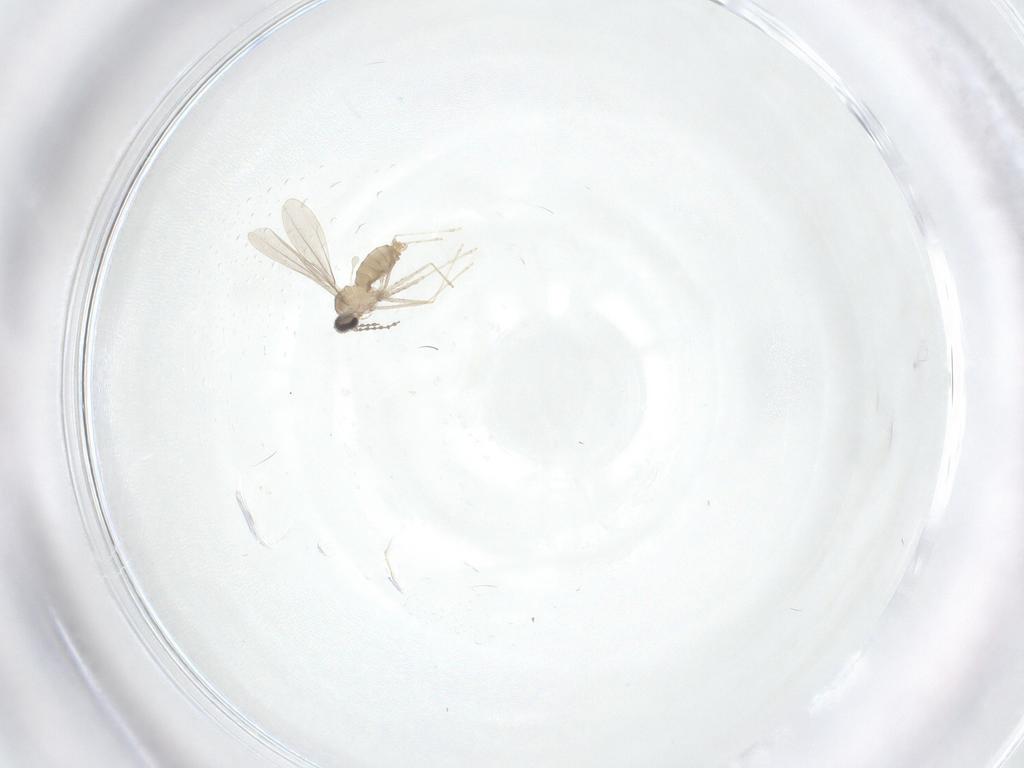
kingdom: Animalia
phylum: Arthropoda
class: Insecta
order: Diptera
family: Cecidomyiidae
